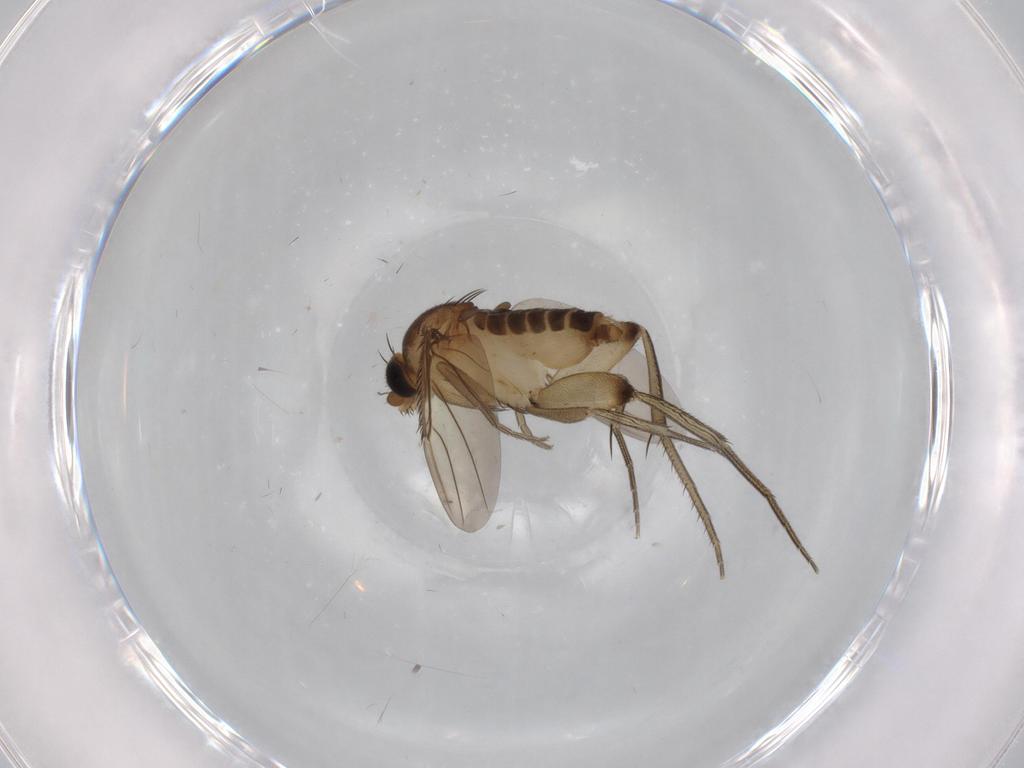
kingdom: Animalia
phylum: Arthropoda
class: Insecta
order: Diptera
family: Phoridae
